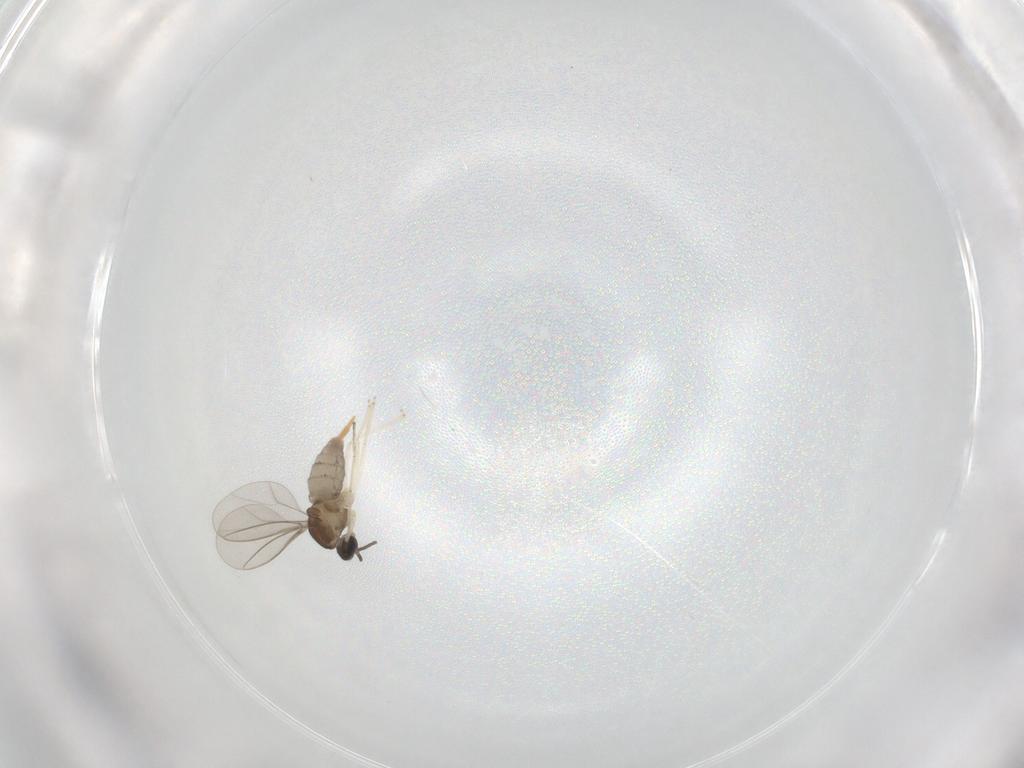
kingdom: Animalia
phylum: Arthropoda
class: Insecta
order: Diptera
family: Cecidomyiidae
